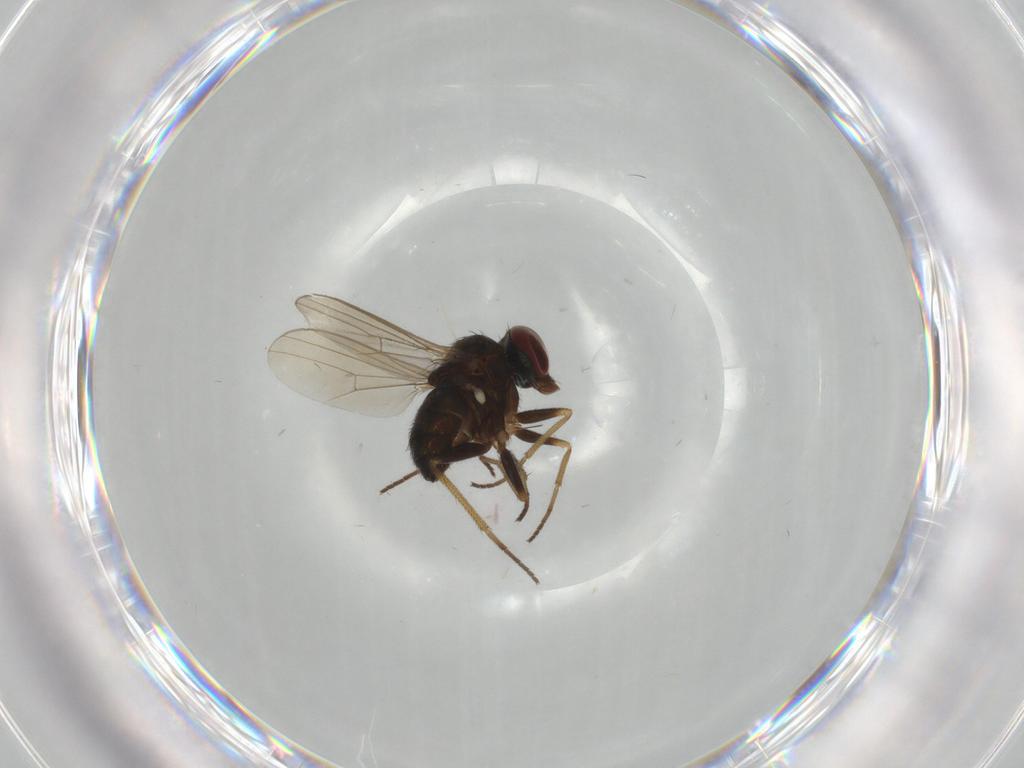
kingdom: Animalia
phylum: Arthropoda
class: Insecta
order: Diptera
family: Dolichopodidae
